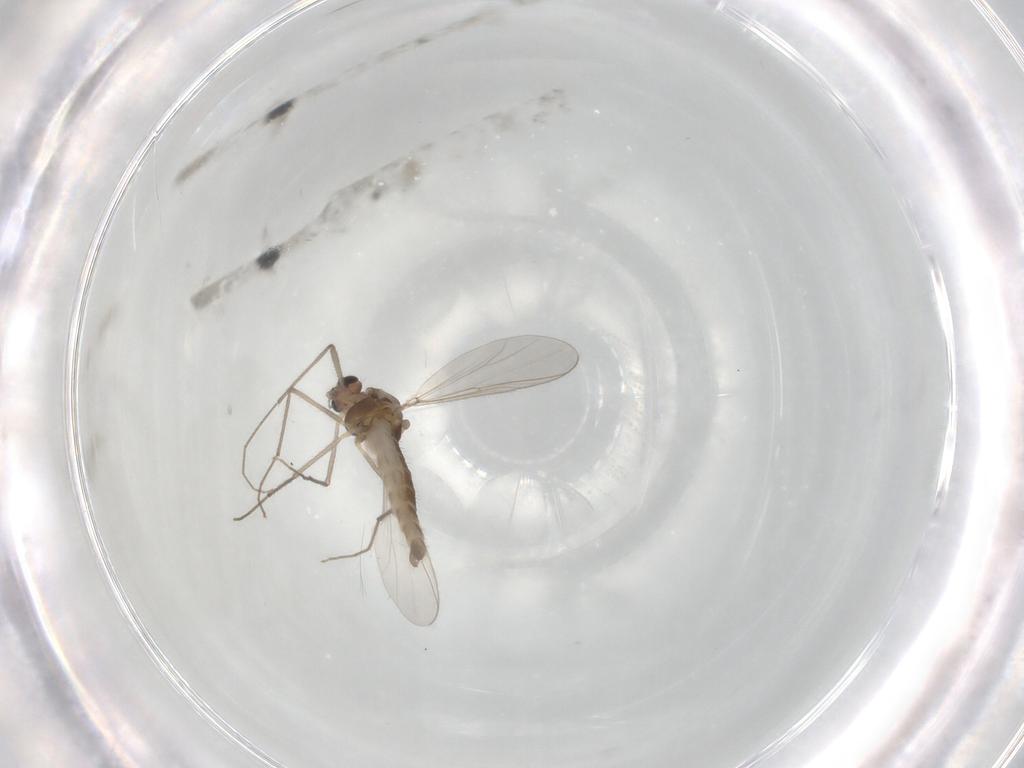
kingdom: Animalia
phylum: Arthropoda
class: Insecta
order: Diptera
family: Chironomidae
